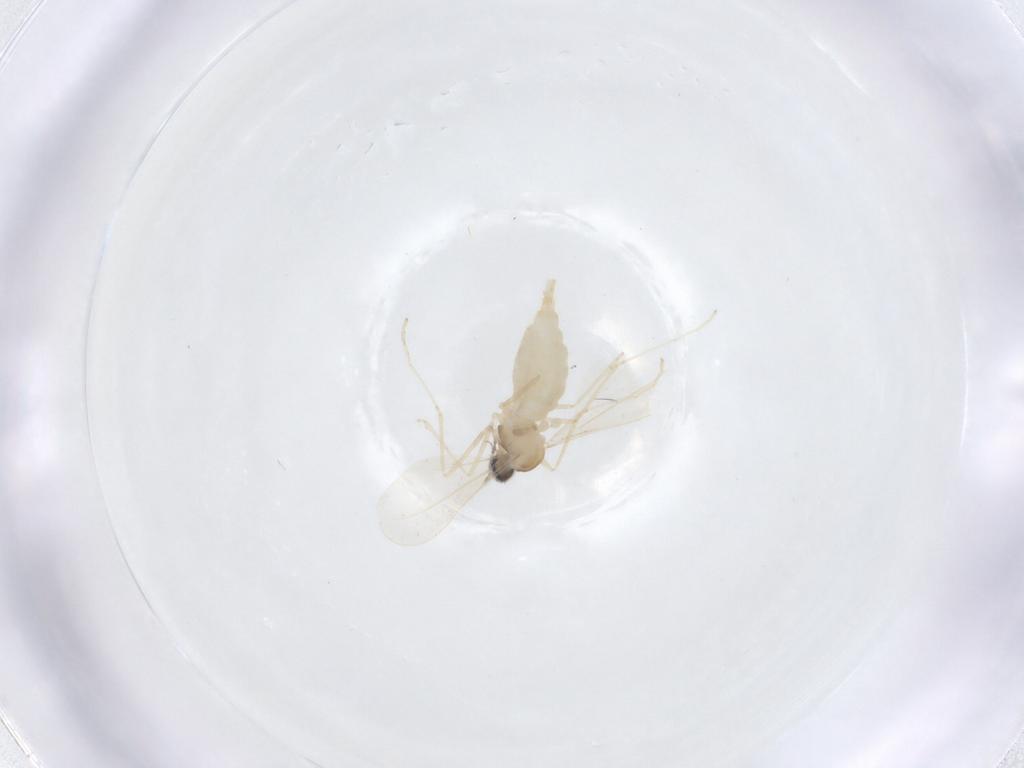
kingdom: Animalia
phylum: Arthropoda
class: Insecta
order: Diptera
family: Cecidomyiidae
